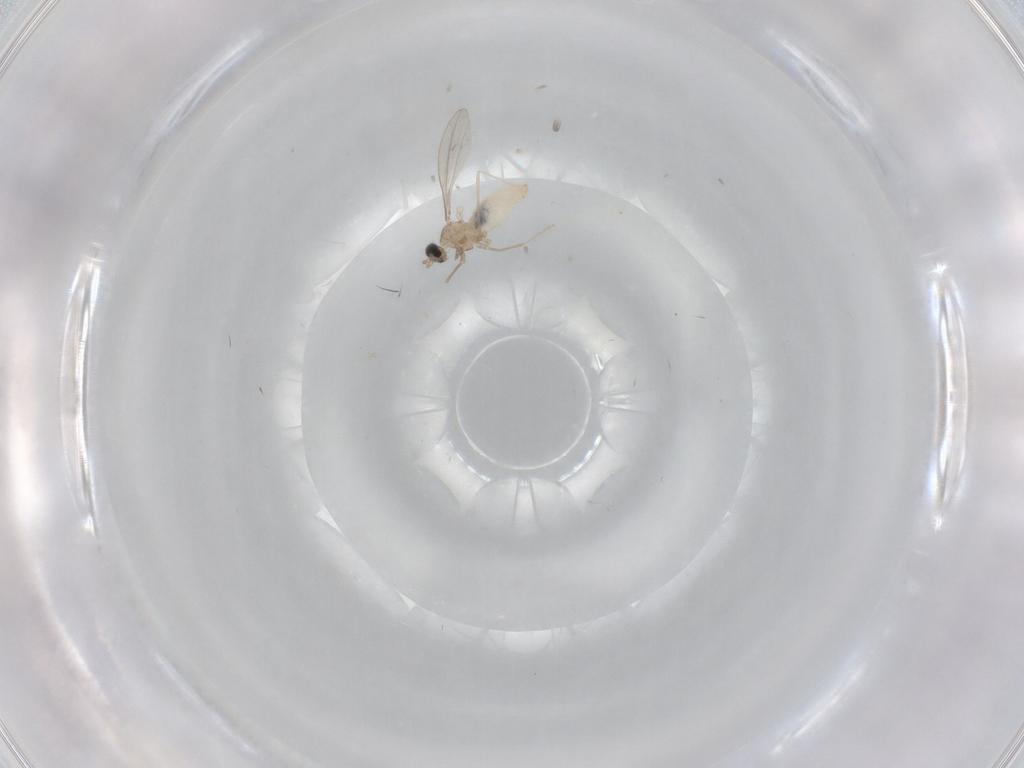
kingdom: Animalia
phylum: Arthropoda
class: Insecta
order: Diptera
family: Cecidomyiidae
